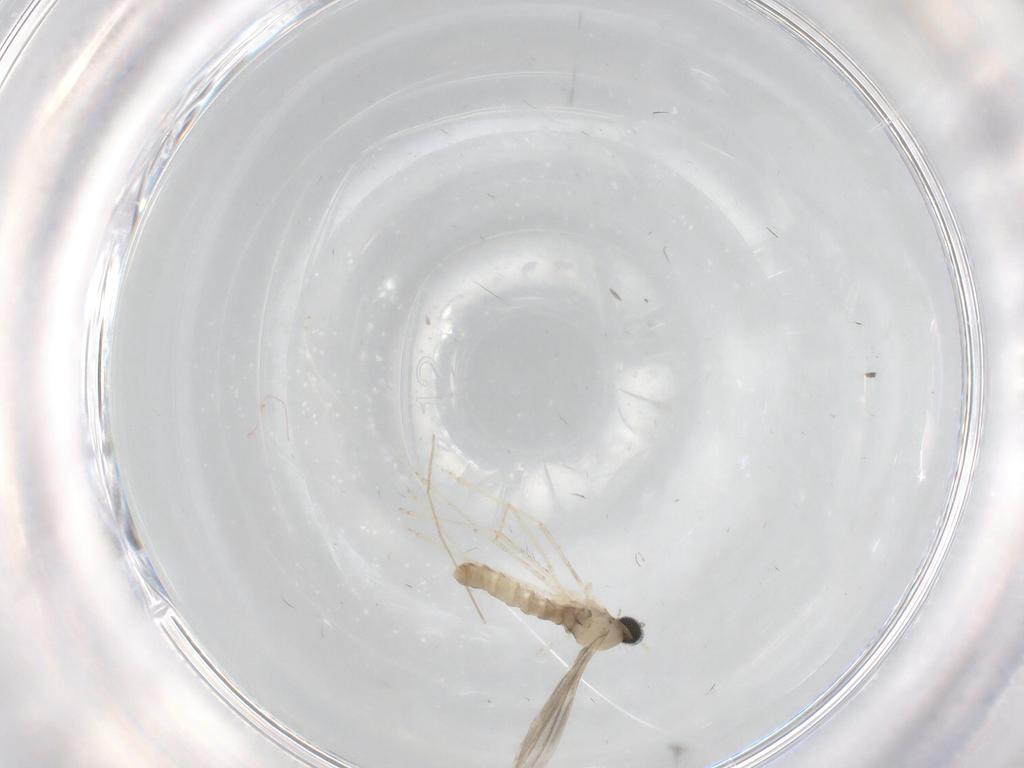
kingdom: Animalia
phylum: Arthropoda
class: Insecta
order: Diptera
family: Cecidomyiidae
